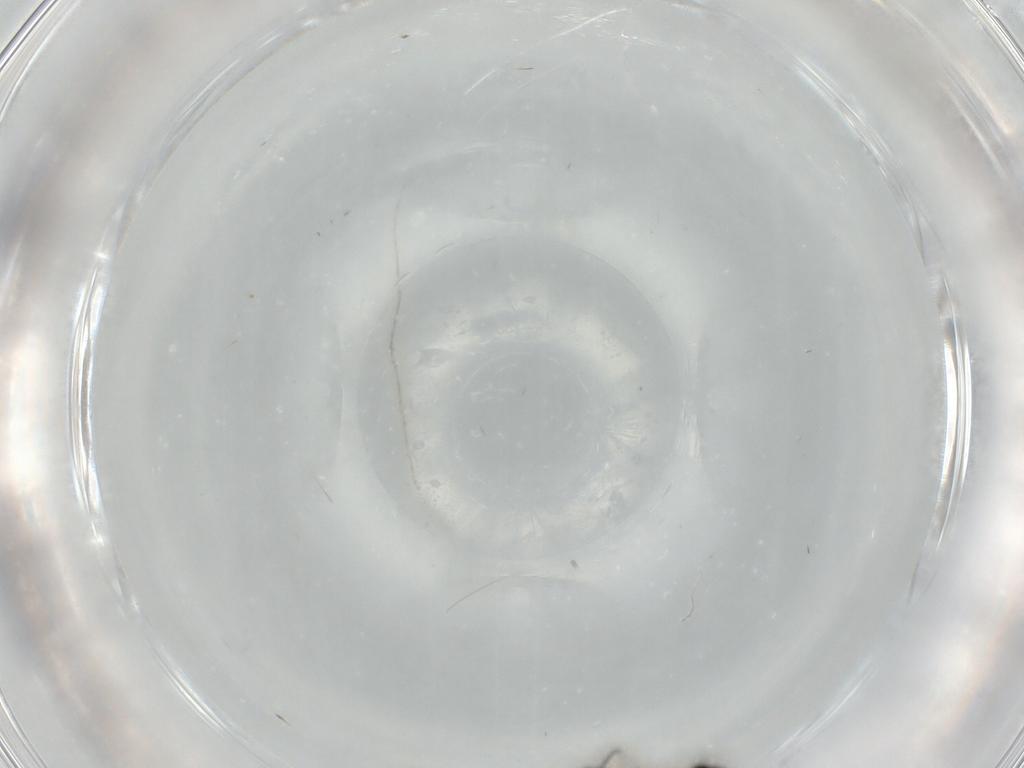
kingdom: Animalia
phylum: Arthropoda
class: Insecta
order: Diptera
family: Sciaridae
